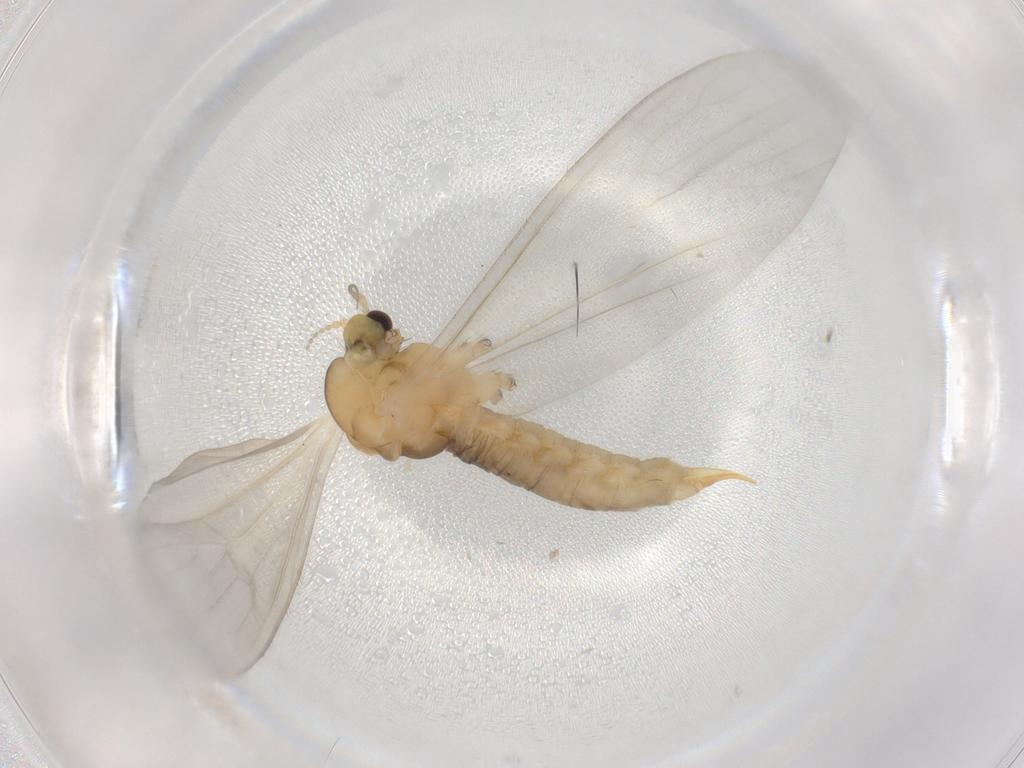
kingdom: Animalia
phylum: Arthropoda
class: Insecta
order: Diptera
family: Limoniidae
